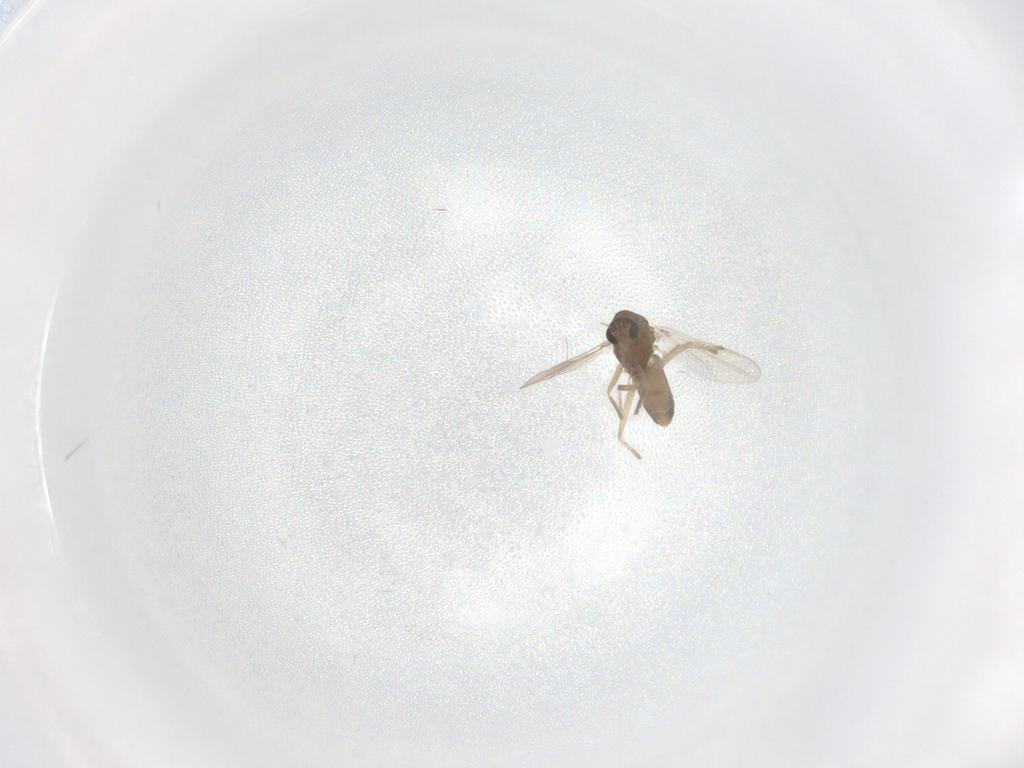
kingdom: Animalia
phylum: Arthropoda
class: Insecta
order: Diptera
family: Chironomidae
